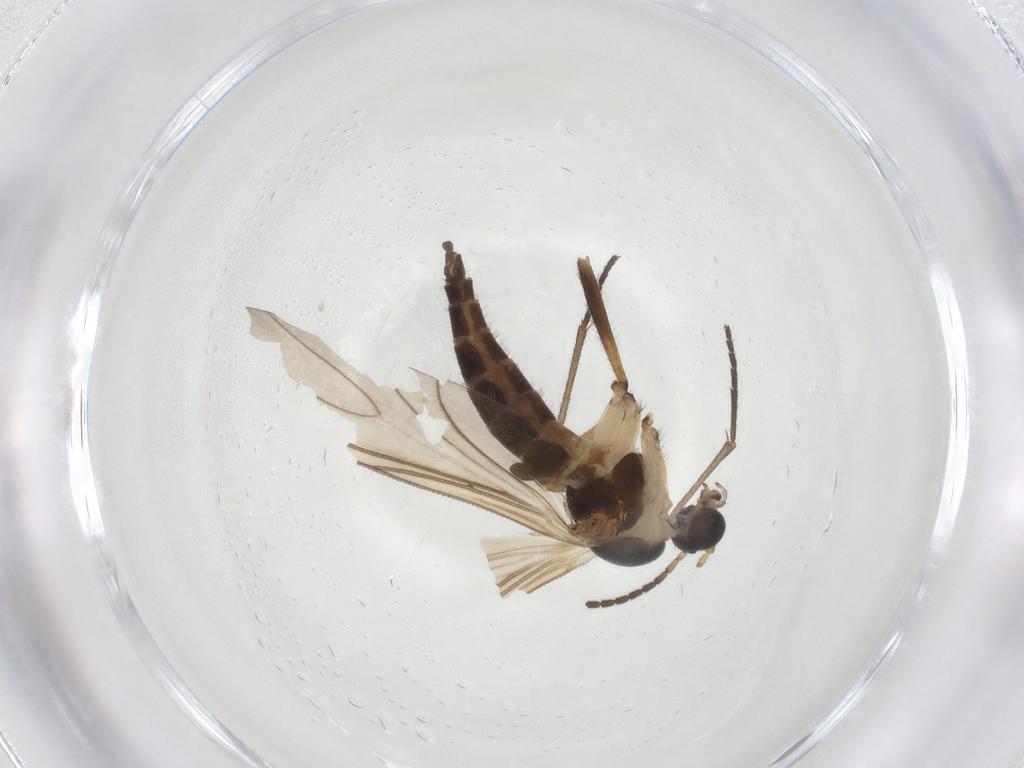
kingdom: Animalia
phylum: Arthropoda
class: Insecta
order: Diptera
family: Sciaridae
